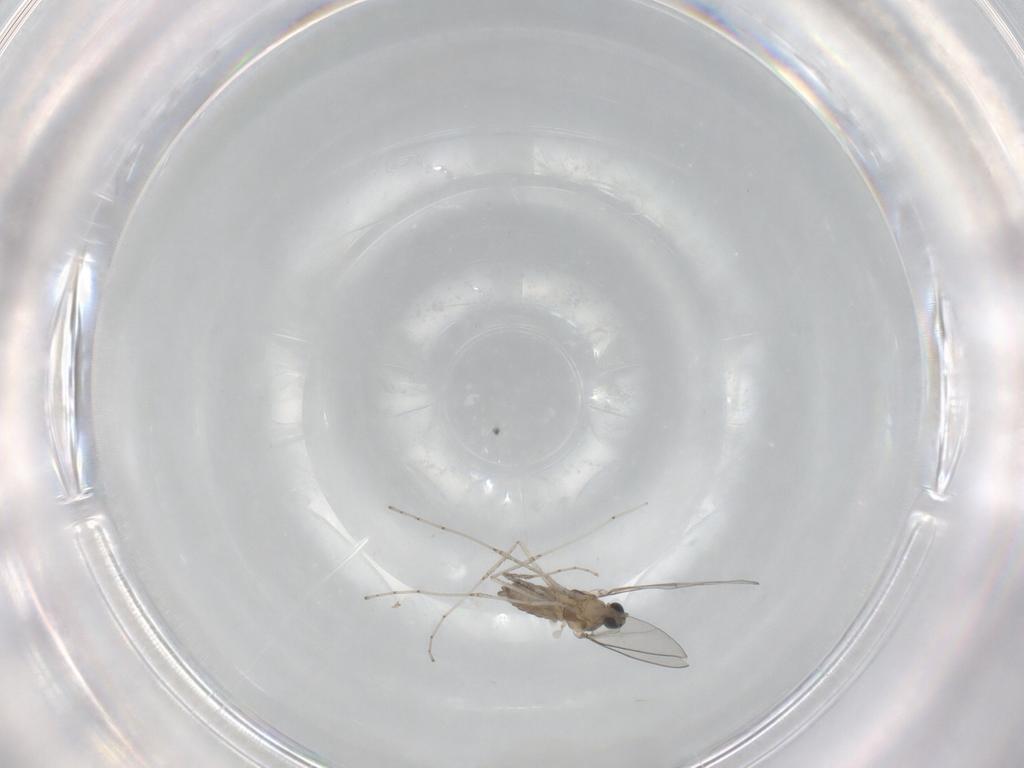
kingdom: Animalia
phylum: Arthropoda
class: Insecta
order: Diptera
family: Cecidomyiidae
